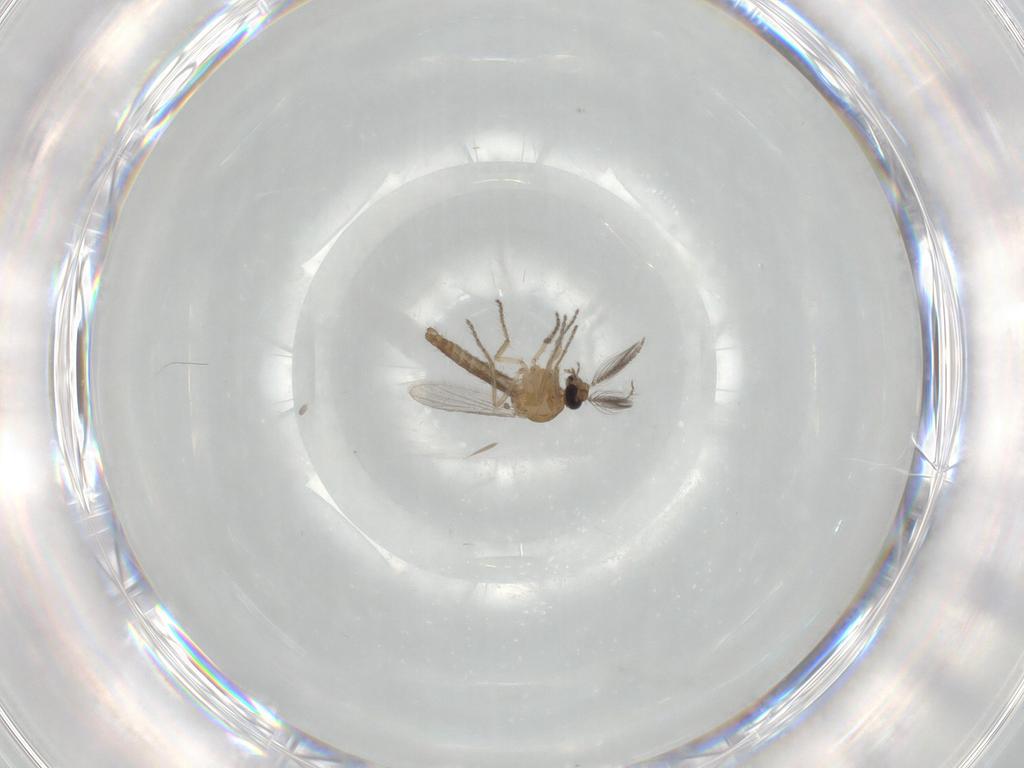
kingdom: Animalia
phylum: Arthropoda
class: Insecta
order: Diptera
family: Ceratopogonidae
